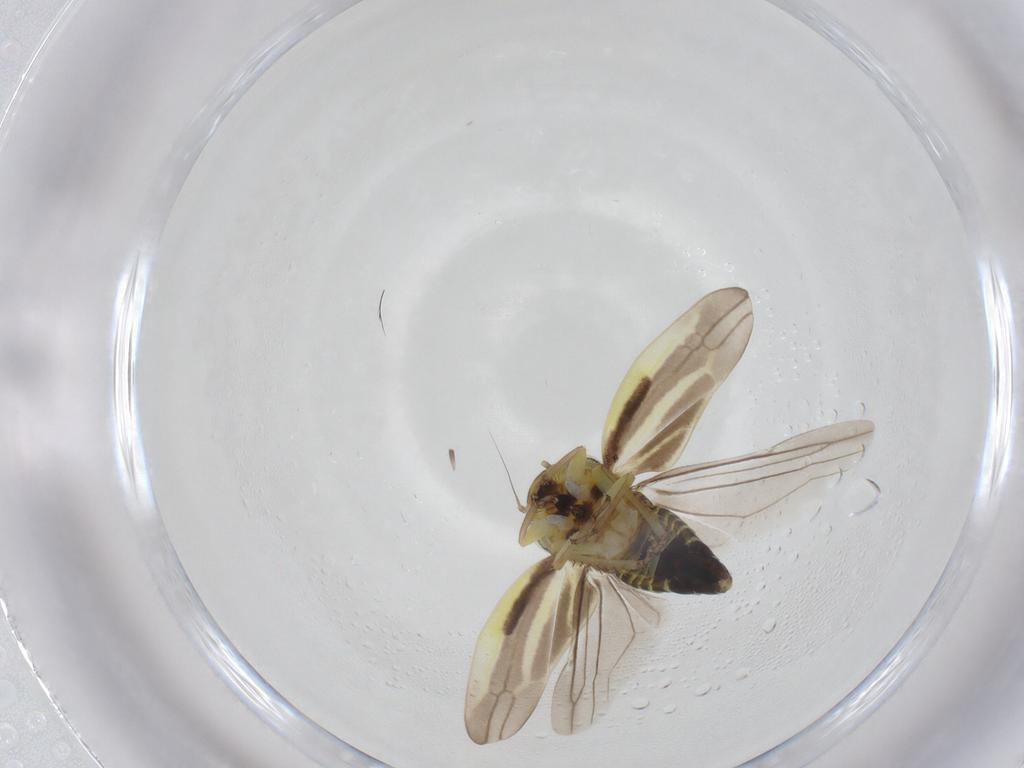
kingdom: Animalia
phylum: Arthropoda
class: Insecta
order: Hemiptera
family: Cicadellidae
